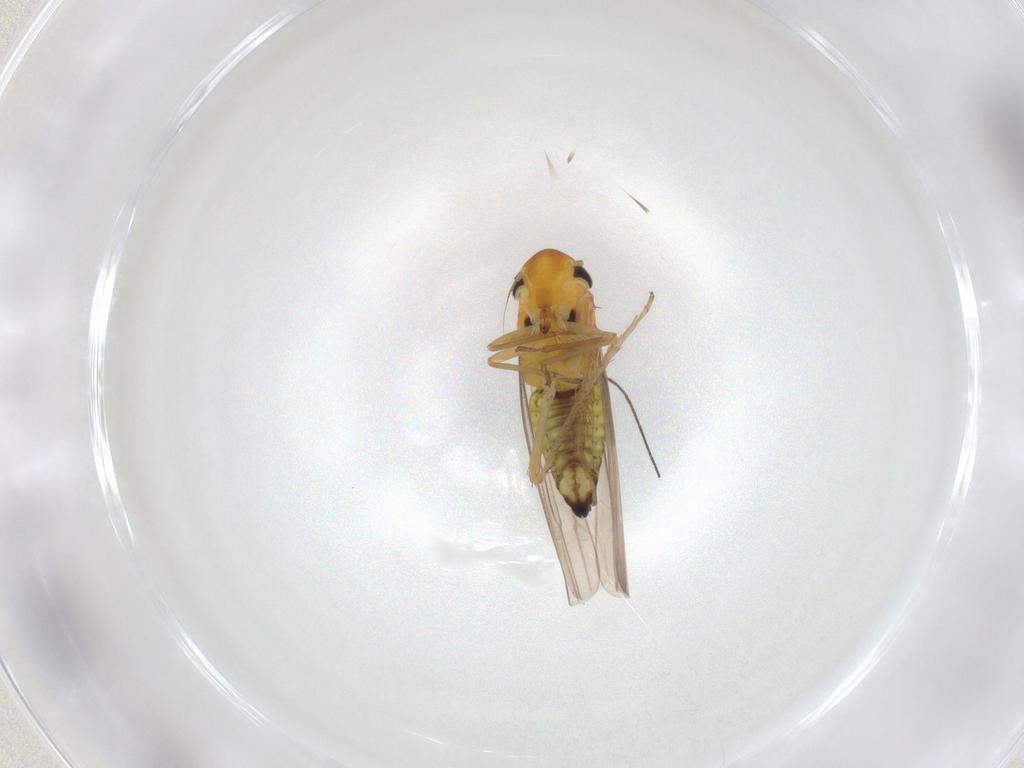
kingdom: Animalia
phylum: Arthropoda
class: Insecta
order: Hemiptera
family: Cicadellidae
